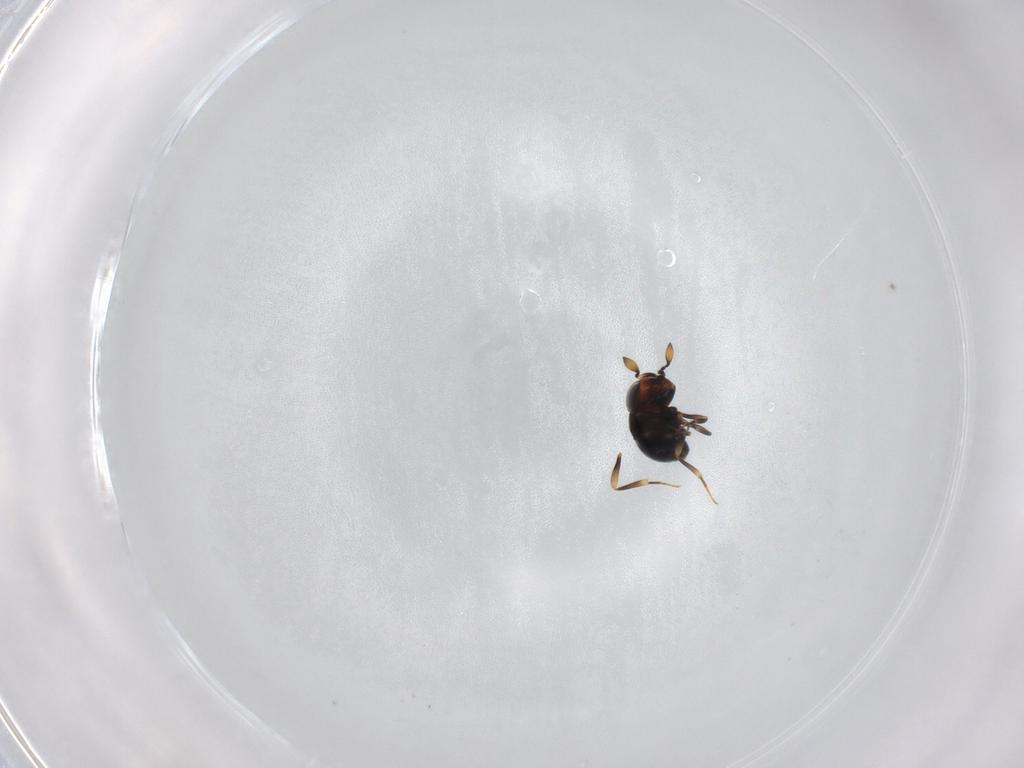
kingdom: Animalia
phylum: Arthropoda
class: Insecta
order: Hymenoptera
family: Scelionidae
